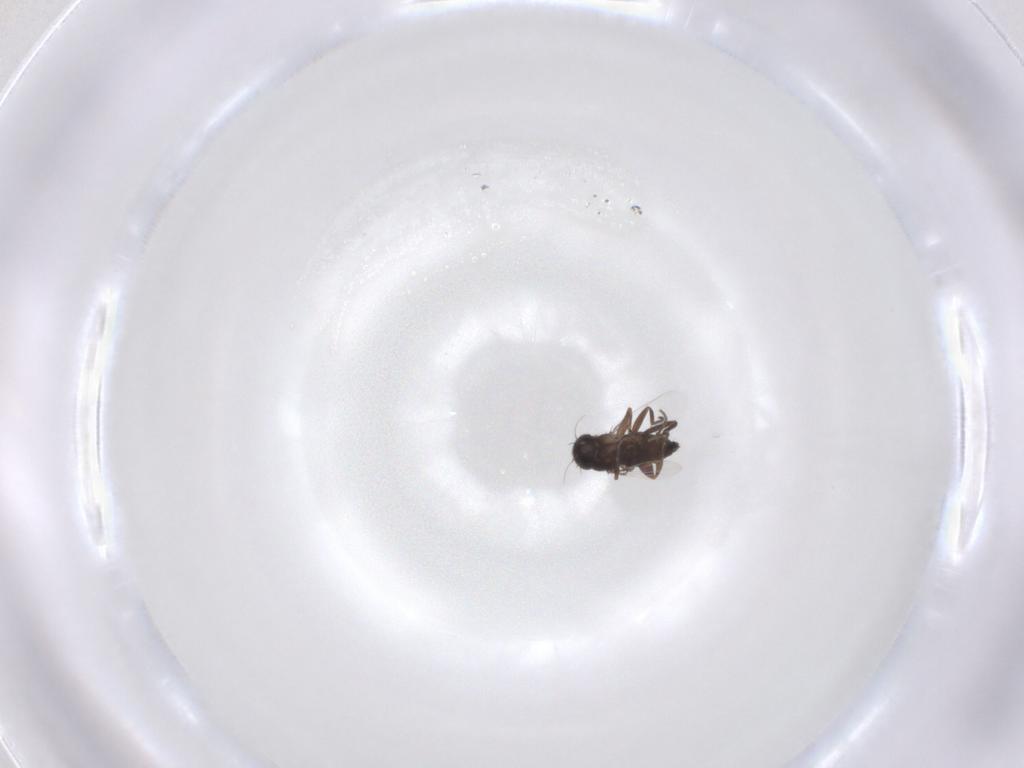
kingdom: Animalia
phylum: Arthropoda
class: Insecta
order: Diptera
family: Phoridae
